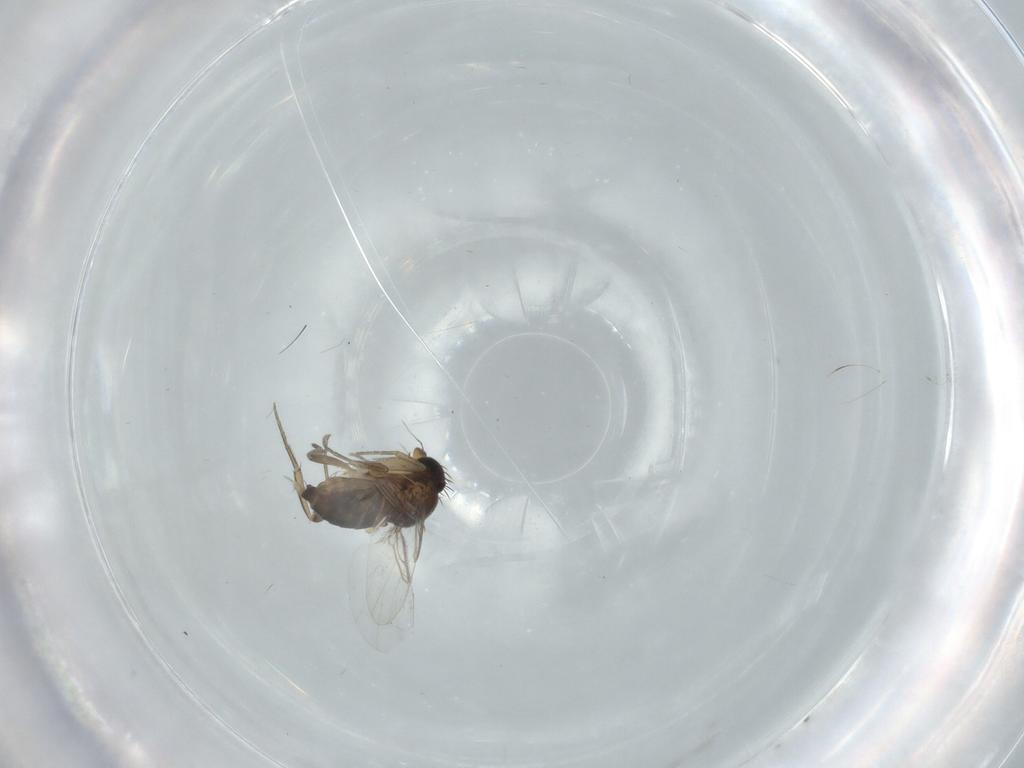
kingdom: Animalia
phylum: Arthropoda
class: Insecta
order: Diptera
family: Phoridae
